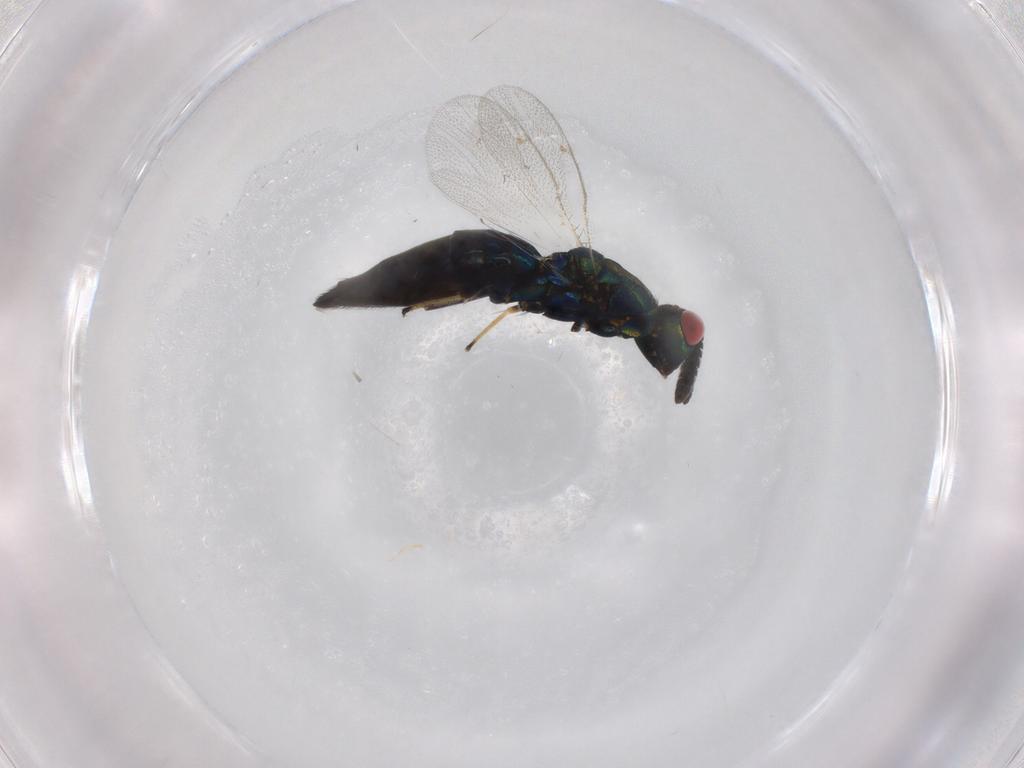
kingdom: Animalia
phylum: Arthropoda
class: Insecta
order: Hymenoptera
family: Pteromalidae
